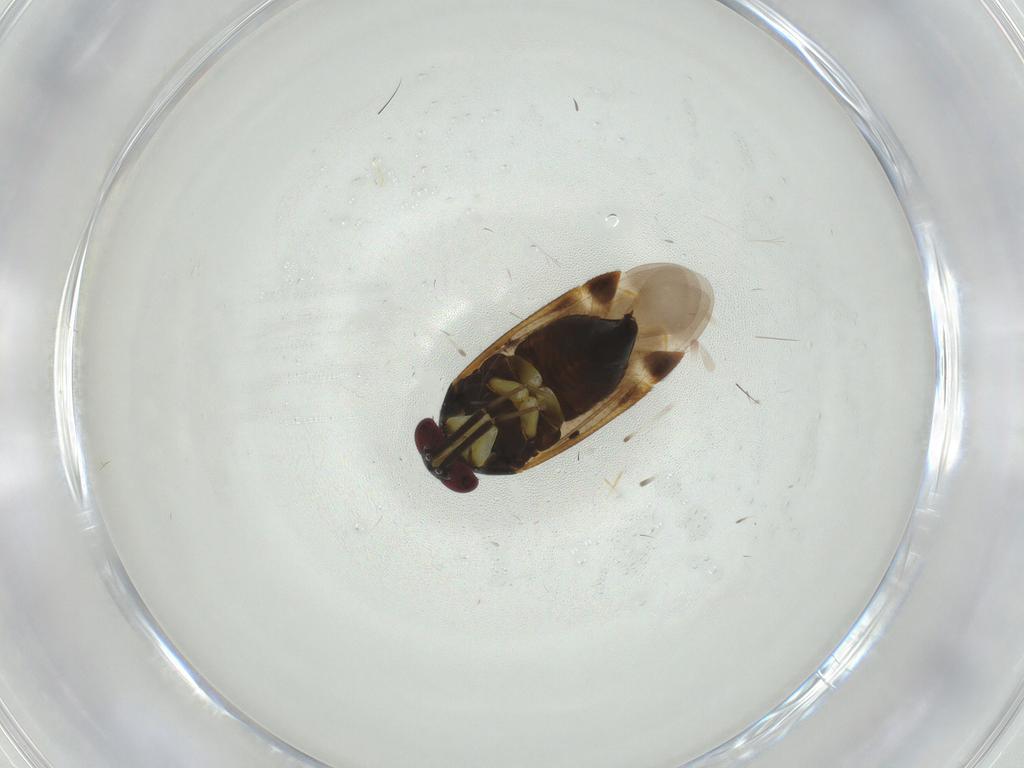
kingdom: Animalia
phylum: Arthropoda
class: Insecta
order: Hemiptera
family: Miridae
